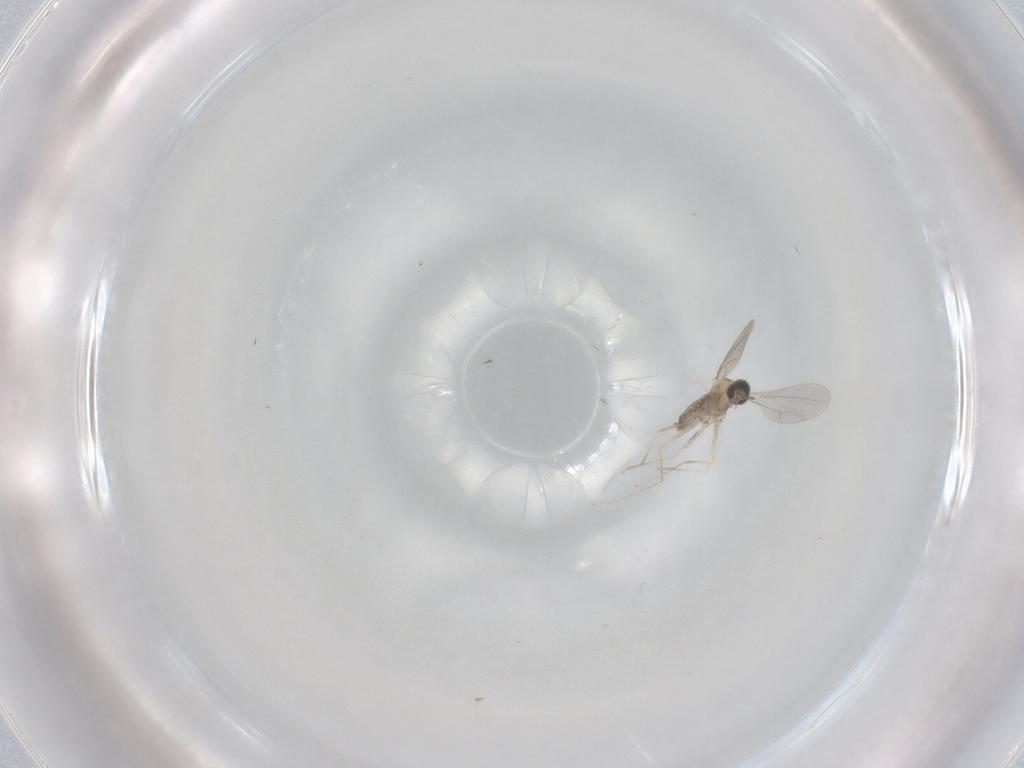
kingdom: Animalia
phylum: Arthropoda
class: Insecta
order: Diptera
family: Cecidomyiidae
